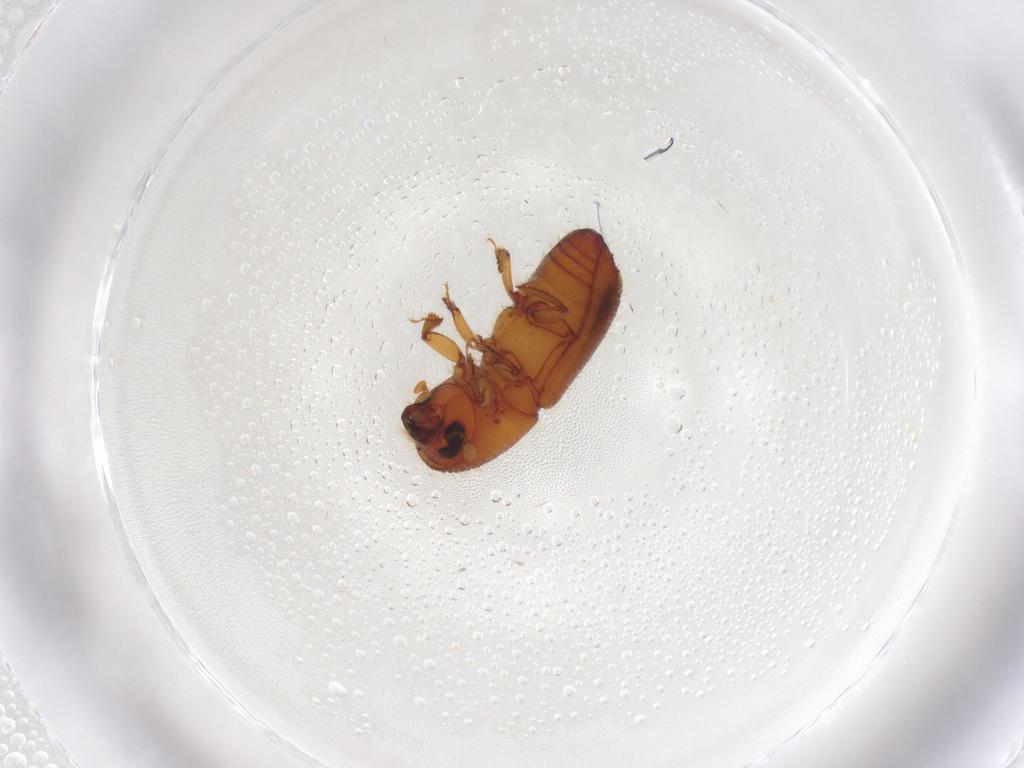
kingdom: Animalia
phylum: Arthropoda
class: Insecta
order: Coleoptera
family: Curculionidae
